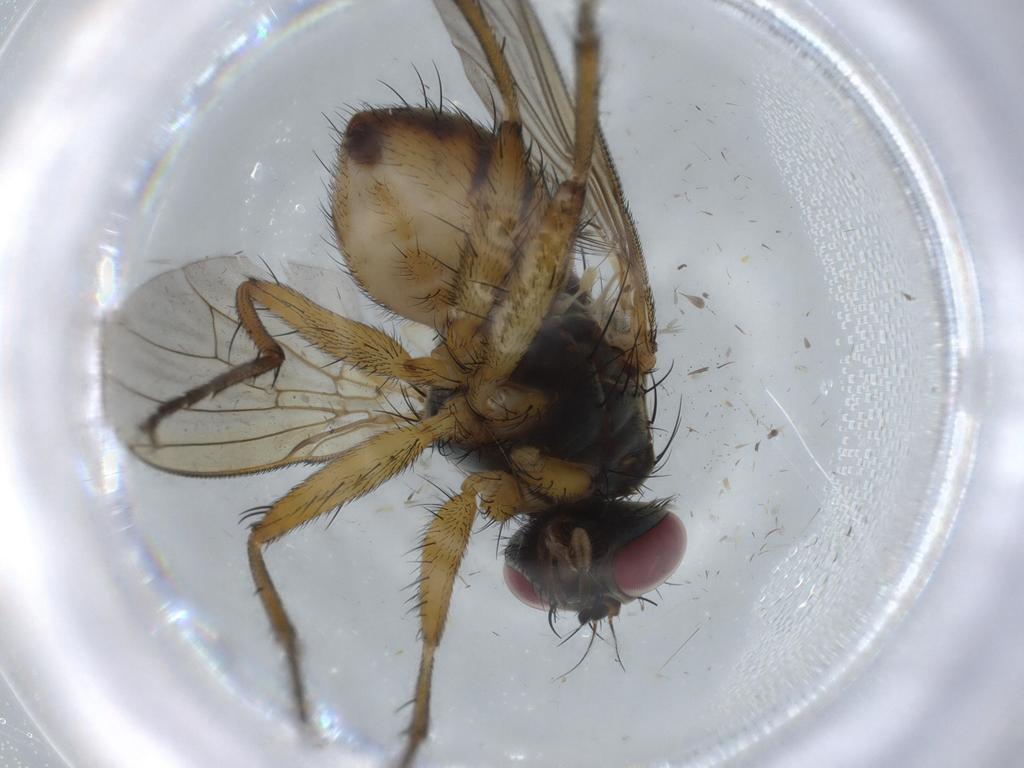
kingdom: Animalia
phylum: Arthropoda
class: Insecta
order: Diptera
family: Muscidae
